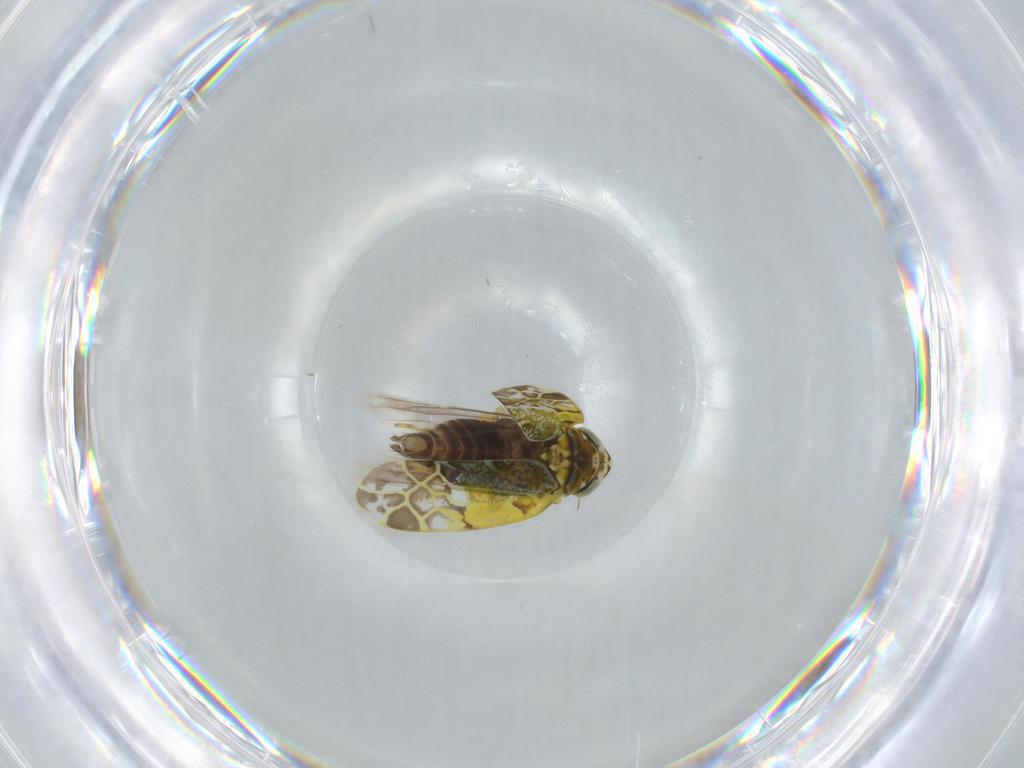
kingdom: Animalia
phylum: Arthropoda
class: Insecta
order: Hemiptera
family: Cicadellidae
